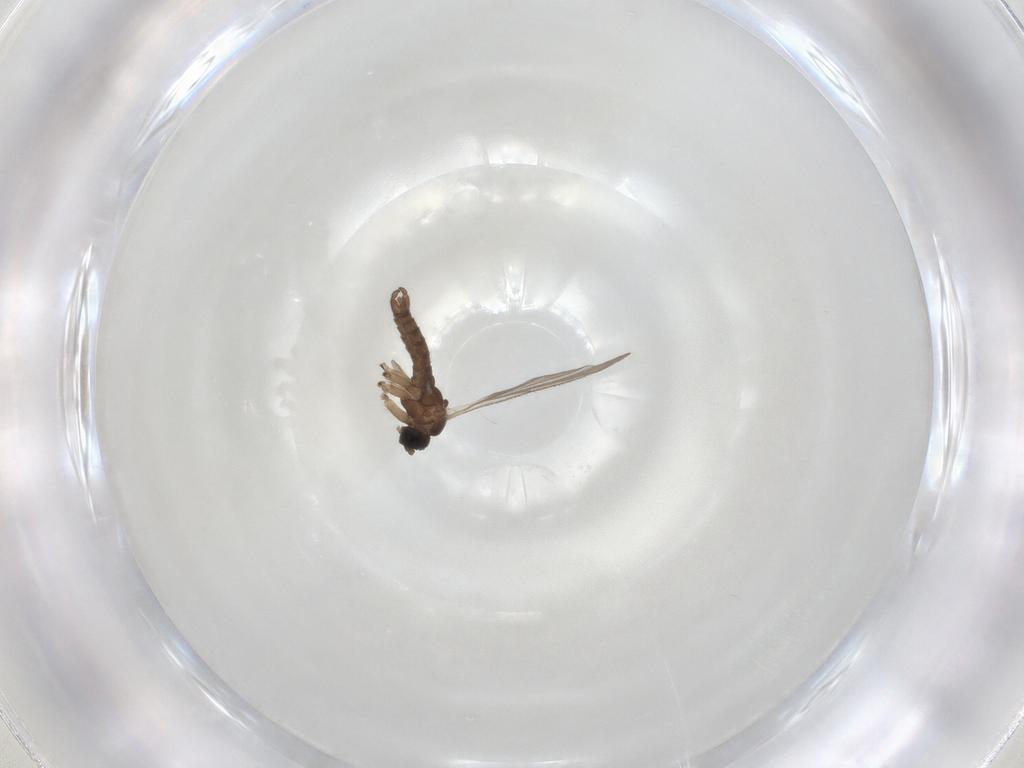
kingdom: Animalia
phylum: Arthropoda
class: Insecta
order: Diptera
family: Sciaridae
